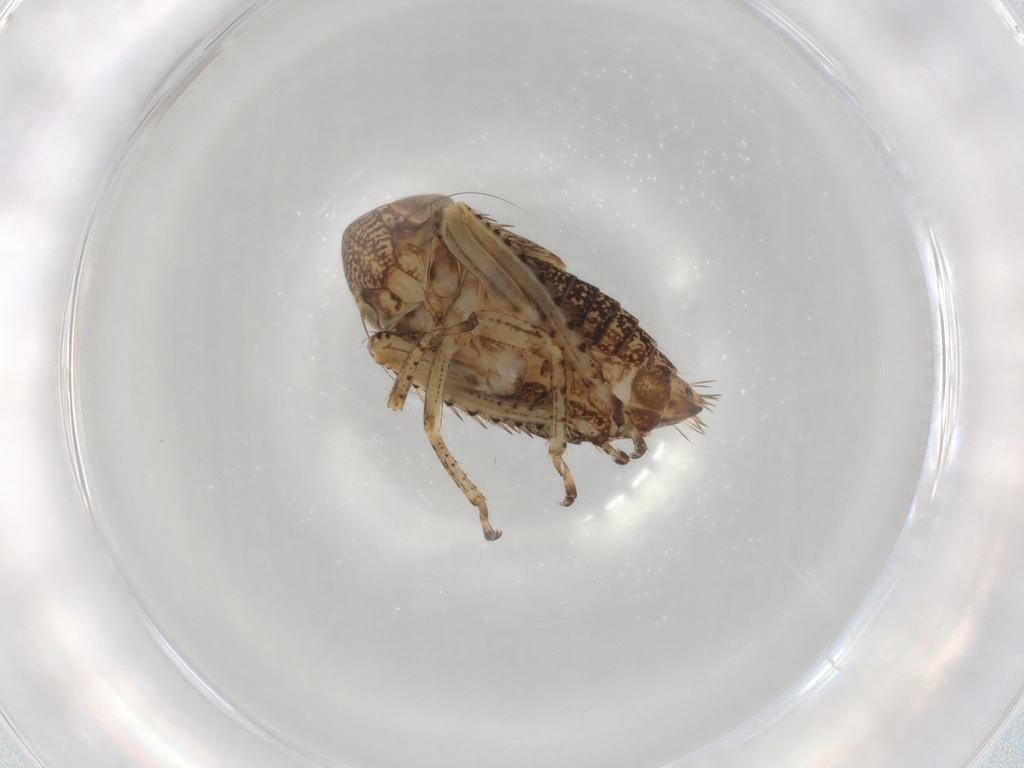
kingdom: Animalia
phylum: Arthropoda
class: Insecta
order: Hemiptera
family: Cicadellidae
